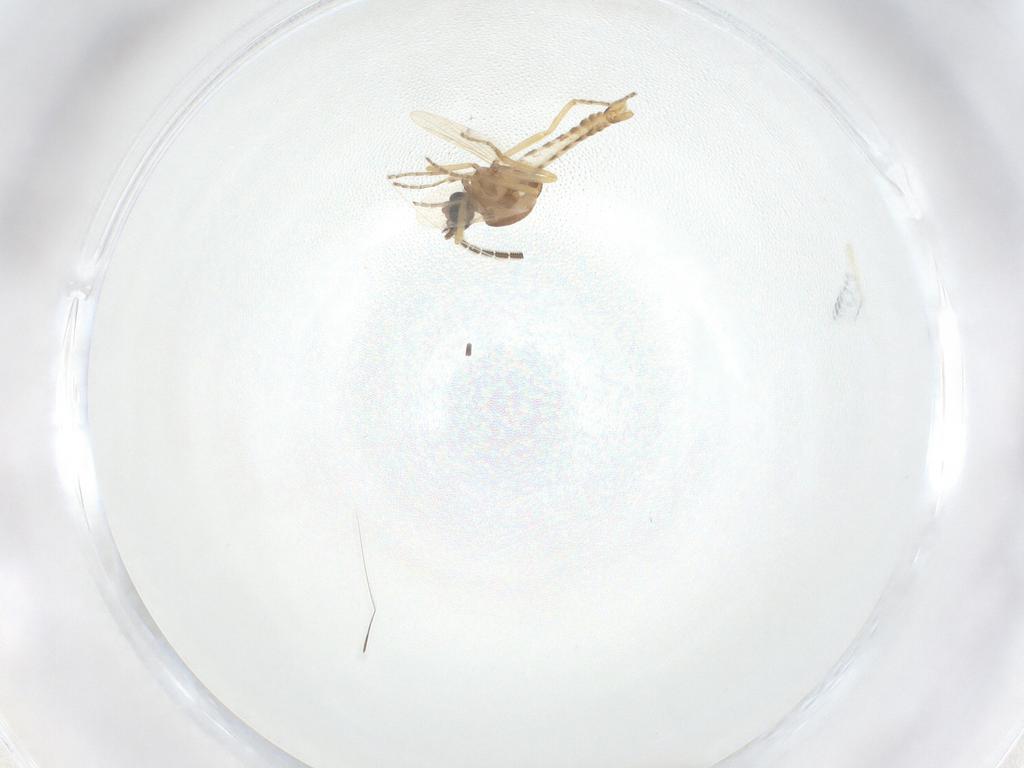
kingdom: Animalia
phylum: Arthropoda
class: Insecta
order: Diptera
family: Sciaridae
